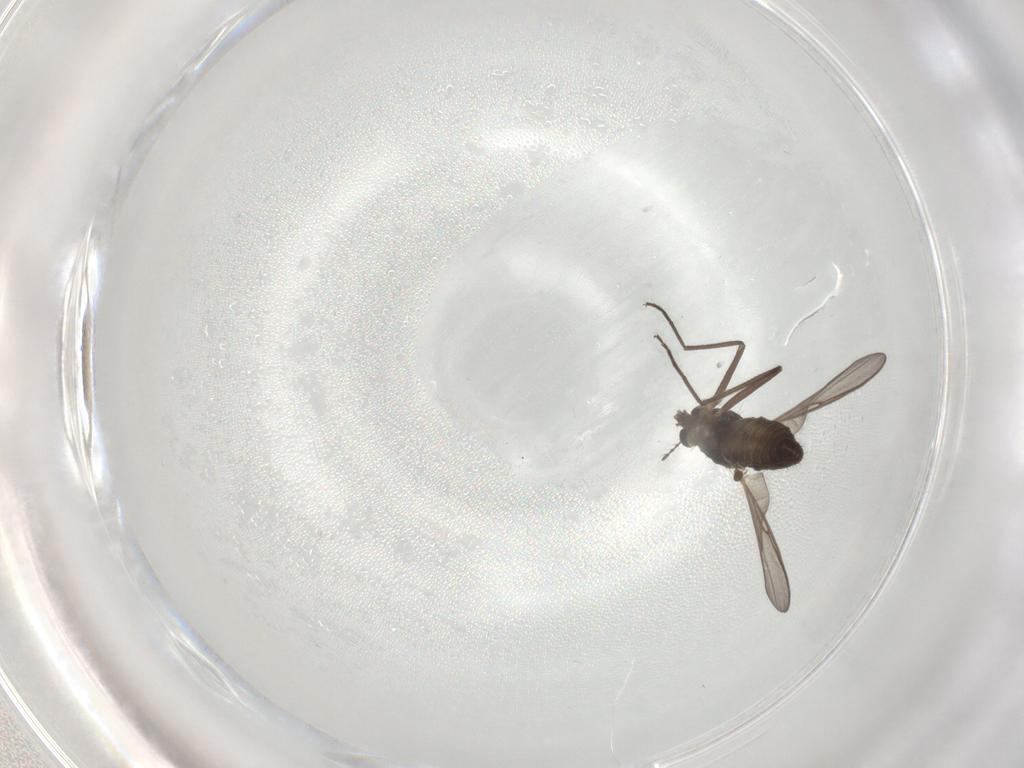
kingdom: Animalia
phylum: Arthropoda
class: Insecta
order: Diptera
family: Chironomidae
